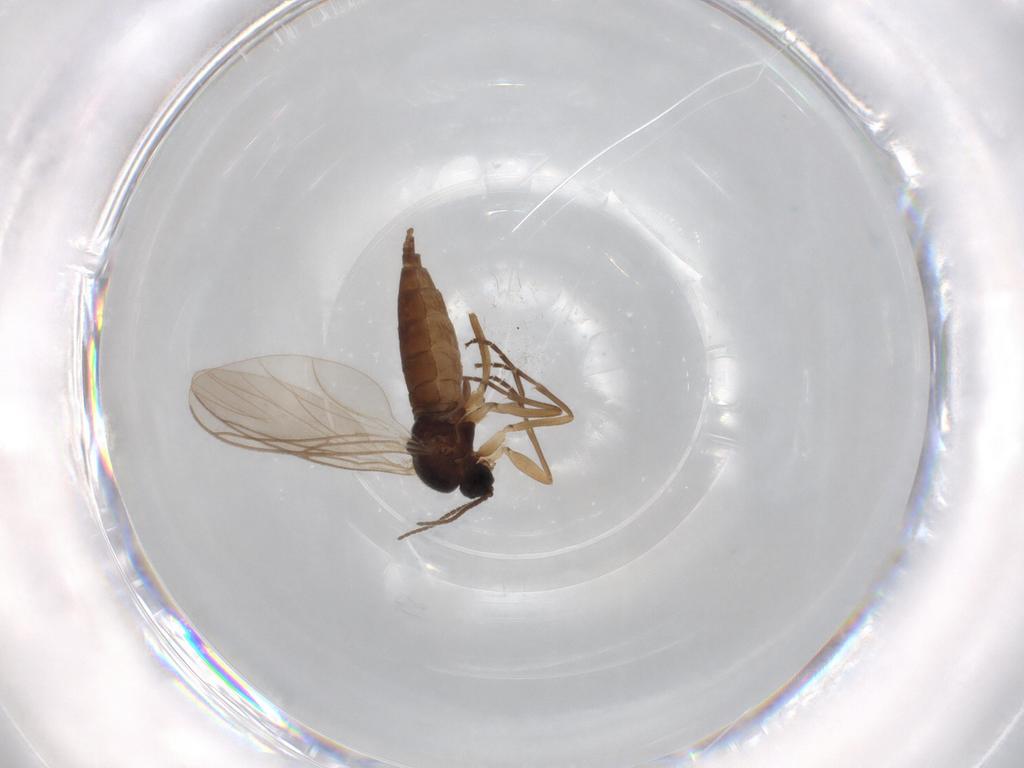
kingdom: Animalia
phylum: Arthropoda
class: Insecta
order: Diptera
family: Sciaridae
